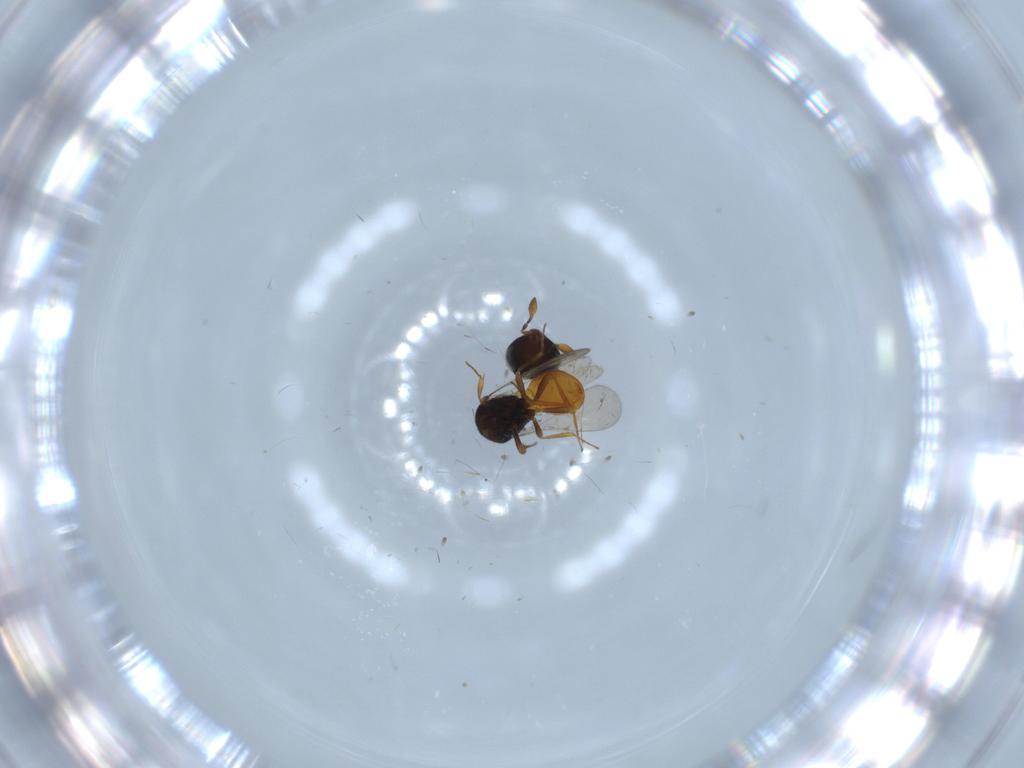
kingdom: Animalia
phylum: Arthropoda
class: Insecta
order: Hymenoptera
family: Scelionidae
